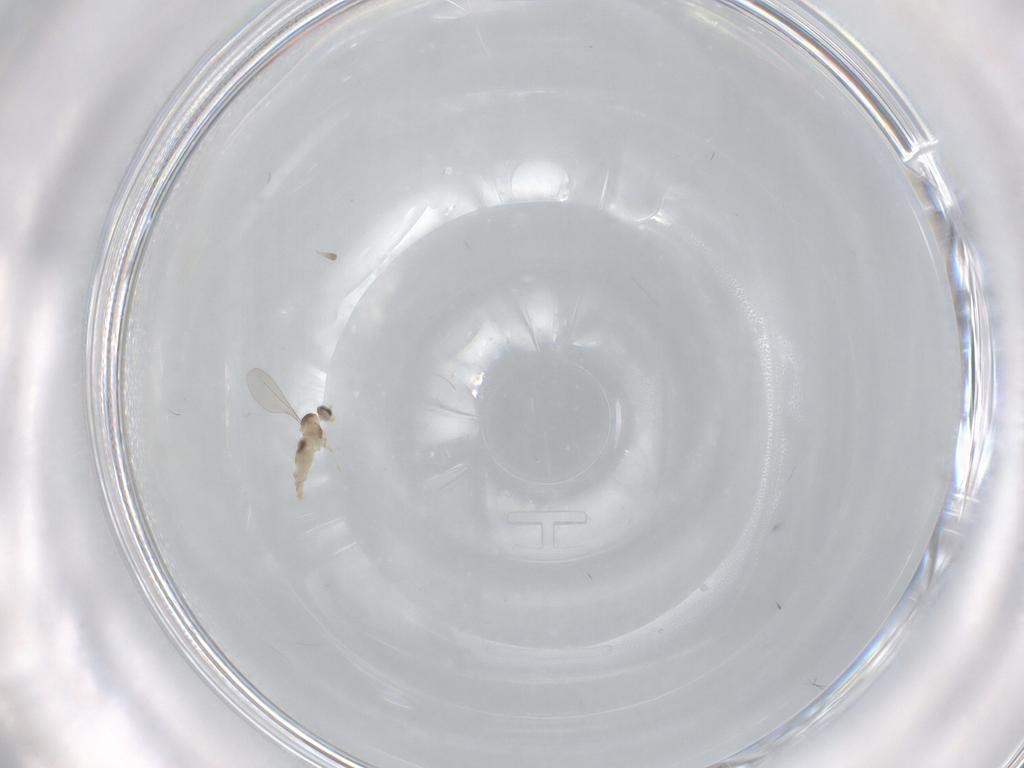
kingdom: Animalia
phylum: Arthropoda
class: Insecta
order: Diptera
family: Cecidomyiidae
